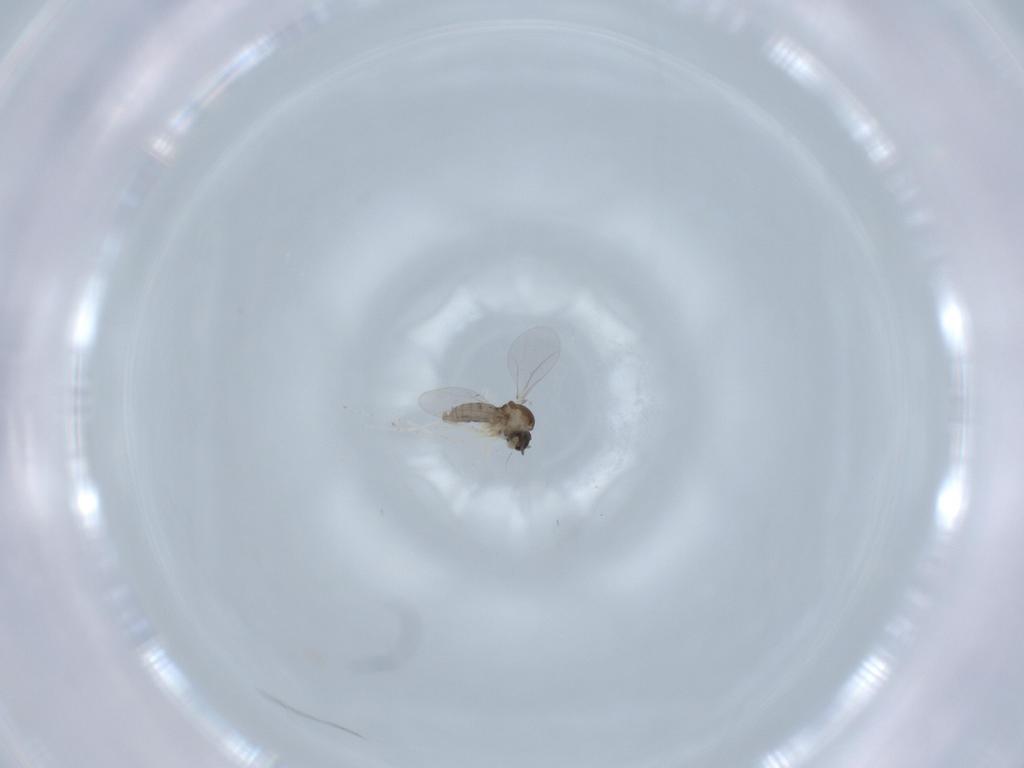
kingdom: Animalia
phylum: Arthropoda
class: Insecta
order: Diptera
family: Cecidomyiidae
